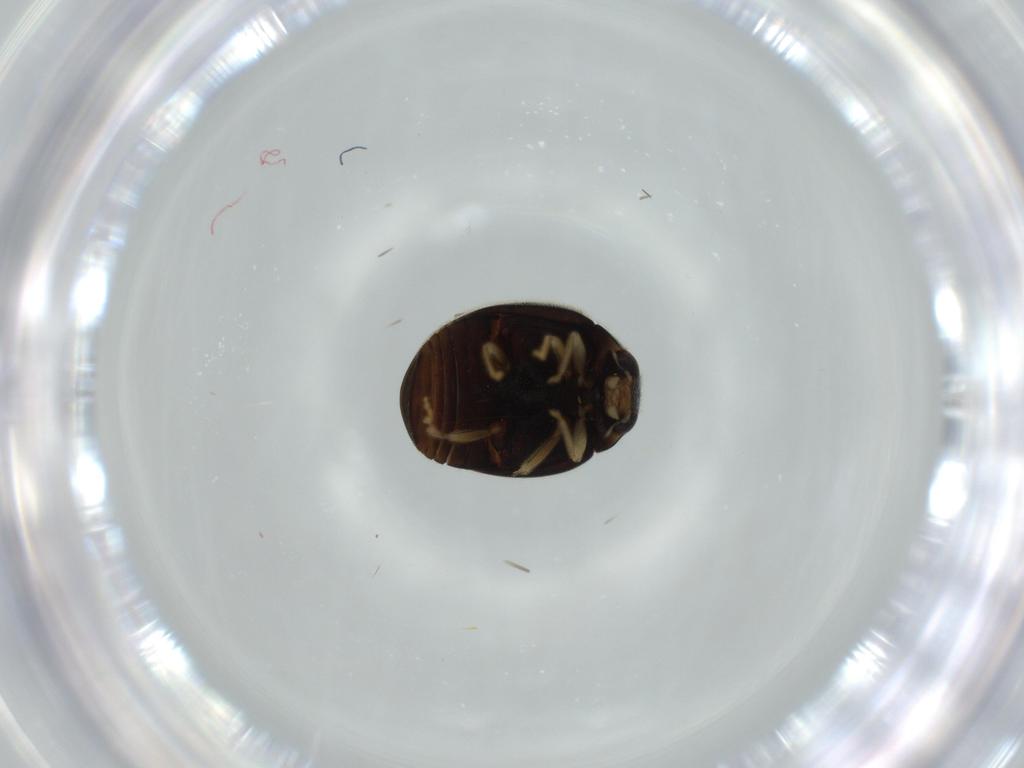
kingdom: Animalia
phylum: Arthropoda
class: Insecta
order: Coleoptera
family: Coccinellidae
